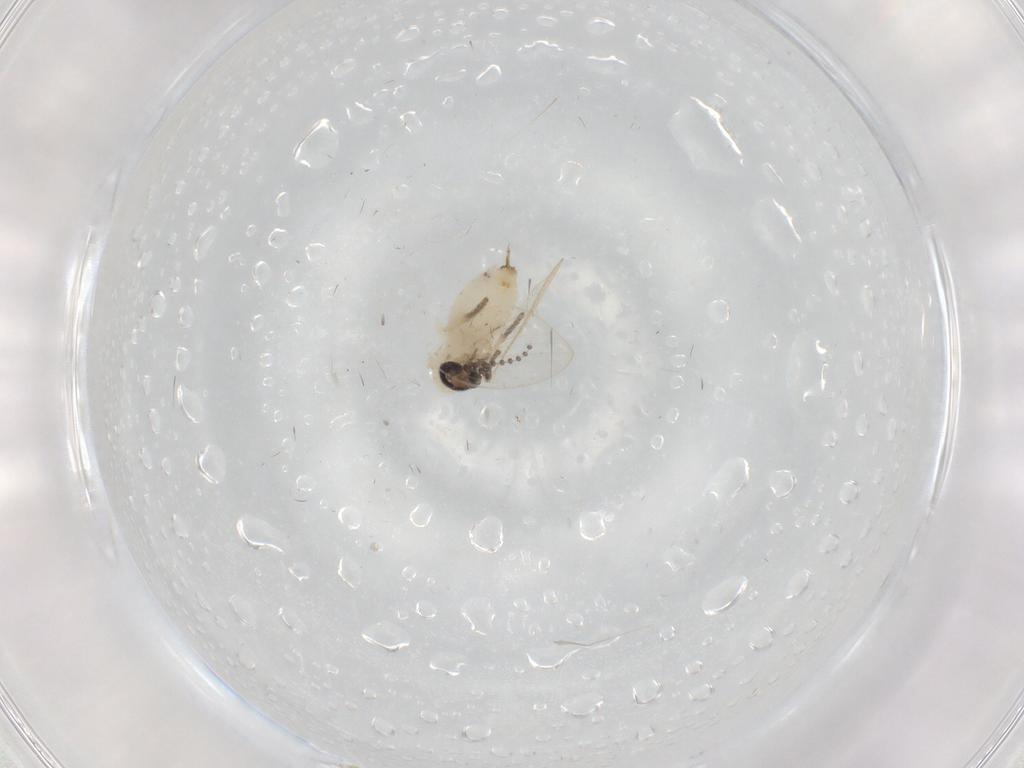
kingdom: Animalia
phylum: Arthropoda
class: Insecta
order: Diptera
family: Psychodidae
